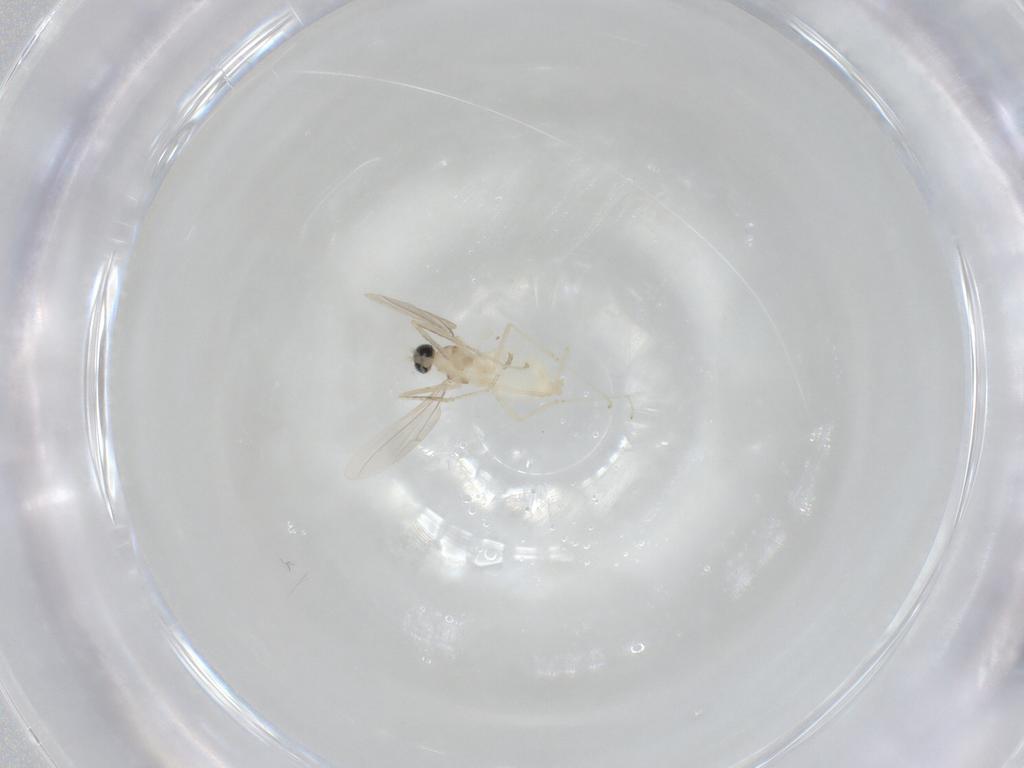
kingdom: Animalia
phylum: Arthropoda
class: Insecta
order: Diptera
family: Cecidomyiidae
